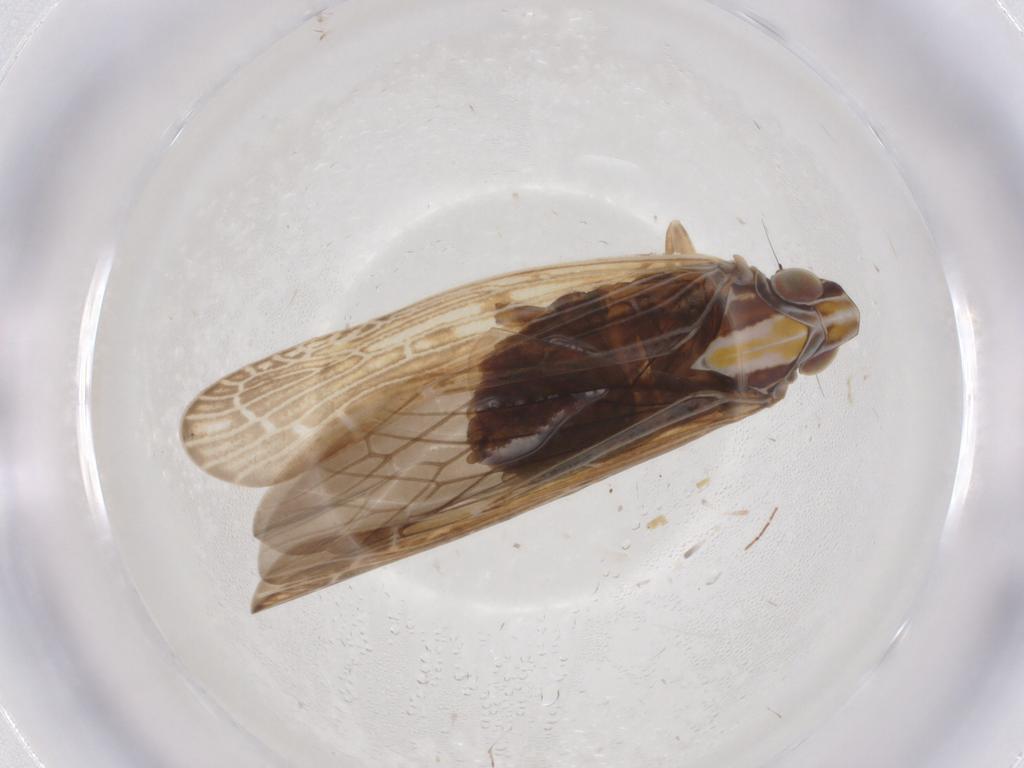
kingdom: Animalia
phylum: Arthropoda
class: Insecta
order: Hemiptera
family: Achilidae
